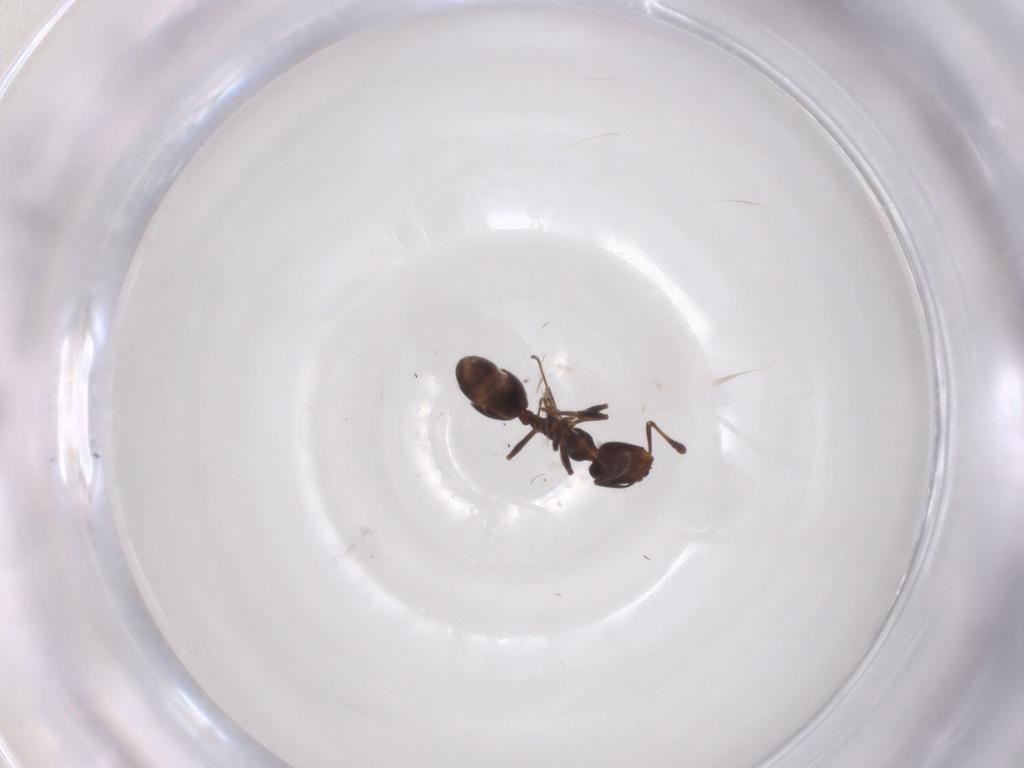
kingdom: Animalia
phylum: Arthropoda
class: Insecta
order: Hymenoptera
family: Formicidae
